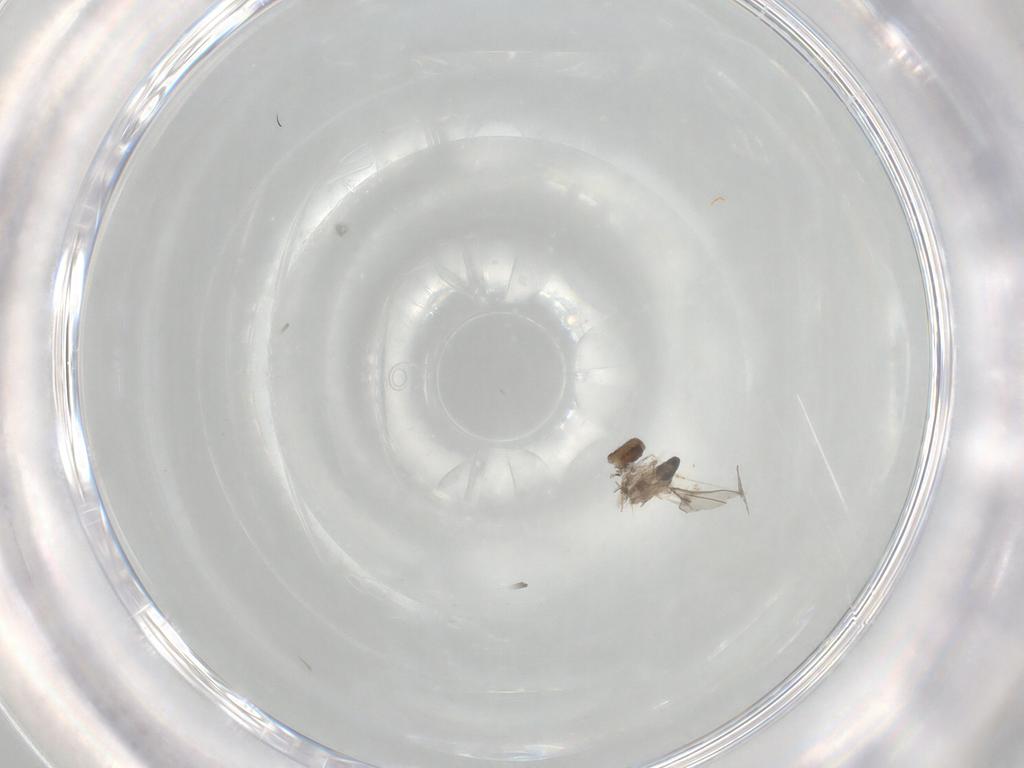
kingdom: Animalia
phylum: Arthropoda
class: Insecta
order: Diptera
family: Cecidomyiidae
